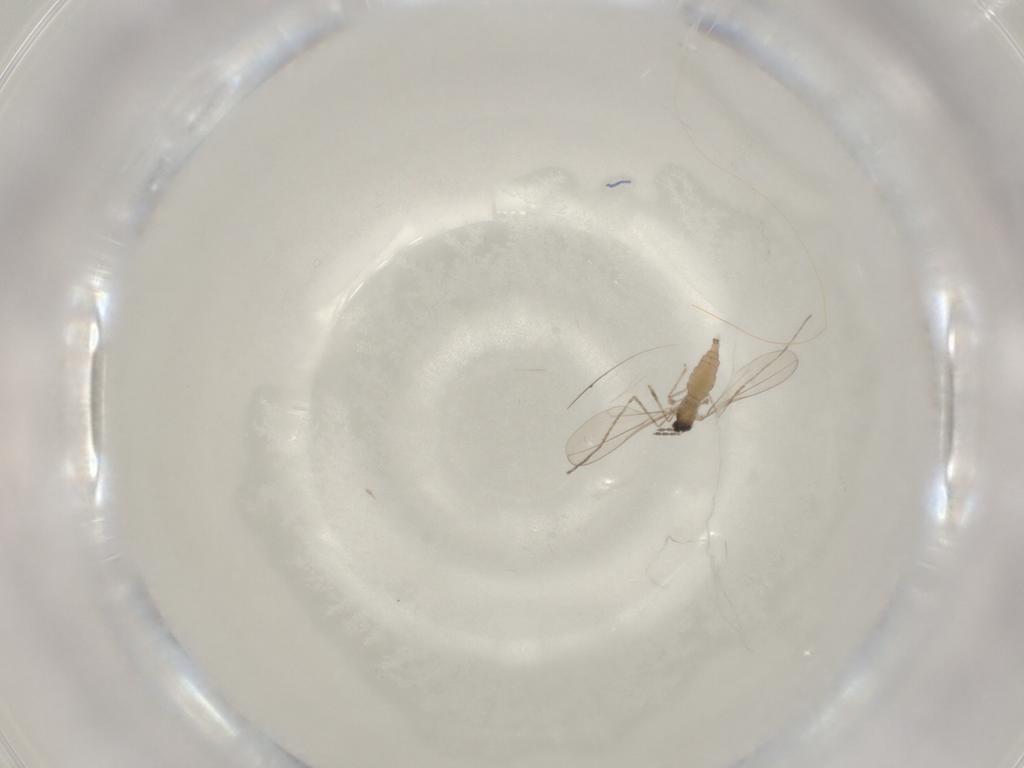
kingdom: Animalia
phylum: Arthropoda
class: Insecta
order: Diptera
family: Cecidomyiidae
